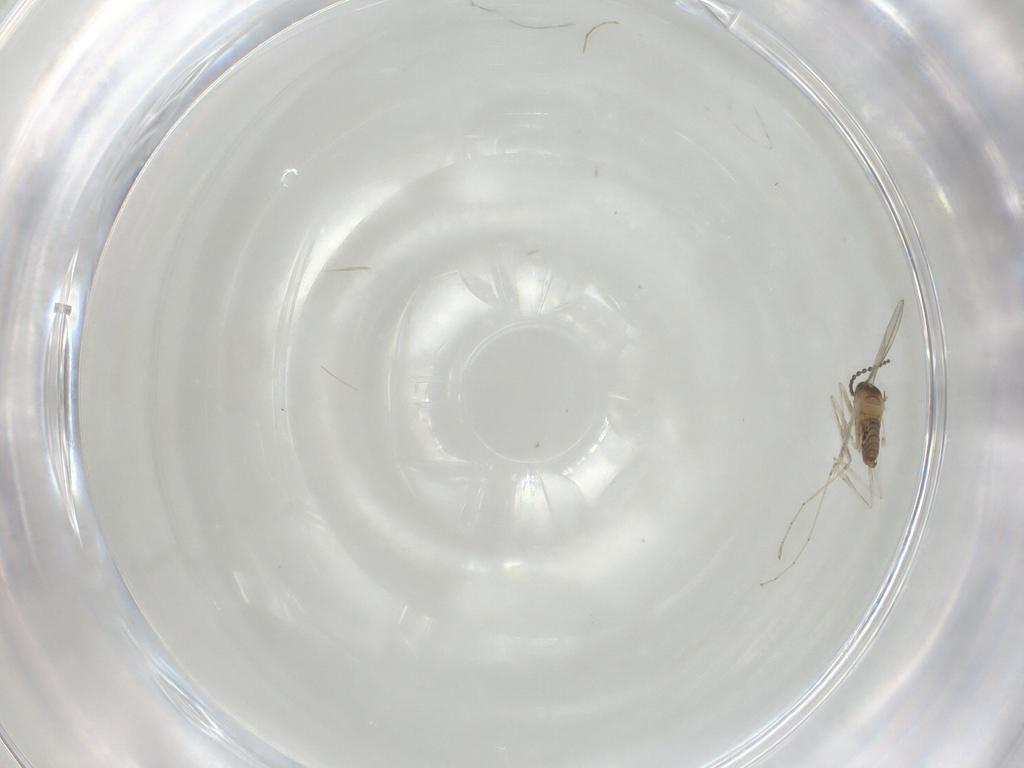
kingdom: Animalia
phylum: Arthropoda
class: Insecta
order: Diptera
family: Cecidomyiidae
